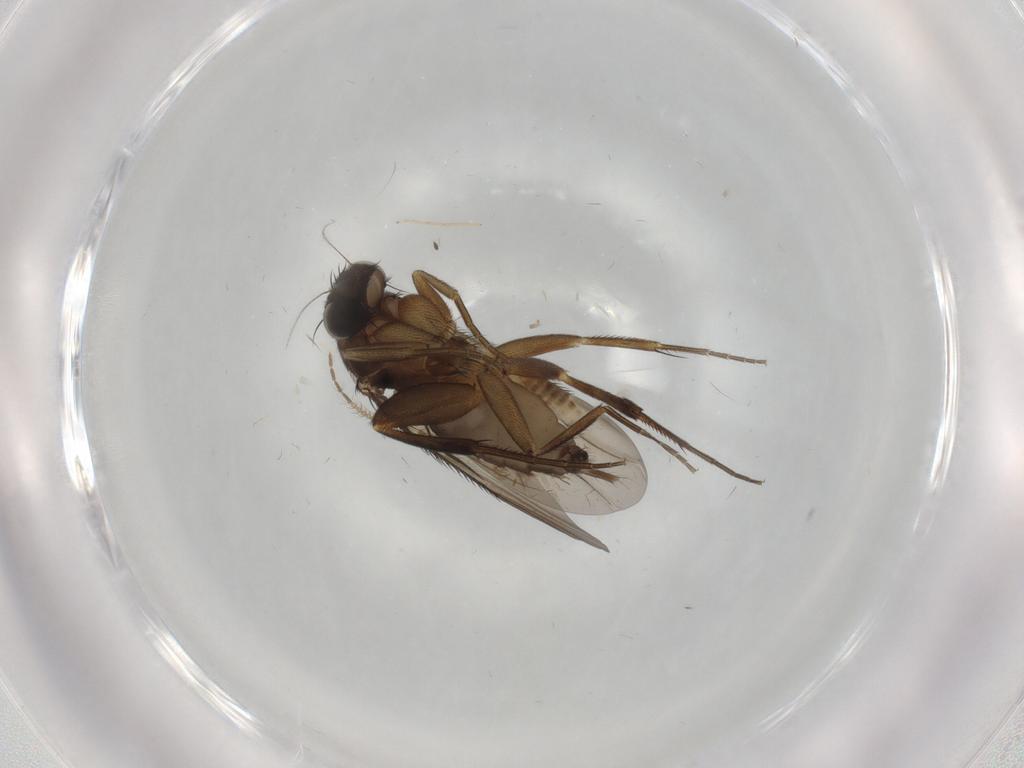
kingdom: Animalia
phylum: Arthropoda
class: Insecta
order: Diptera
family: Phoridae
